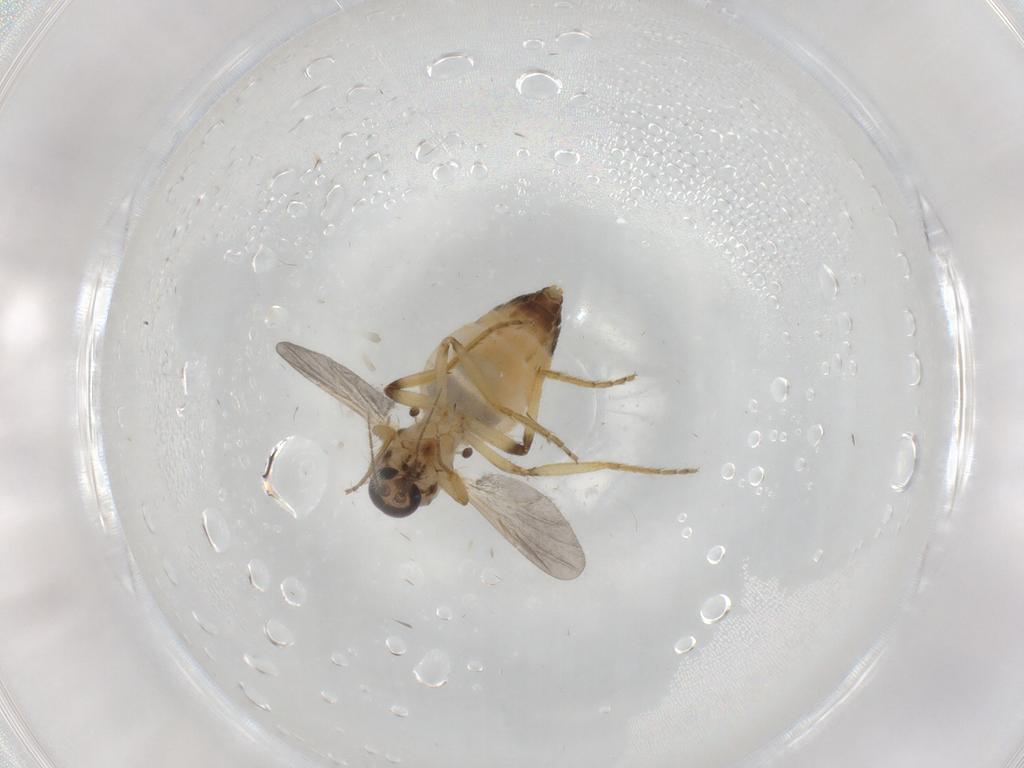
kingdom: Animalia
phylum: Arthropoda
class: Insecta
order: Diptera
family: Ceratopogonidae
